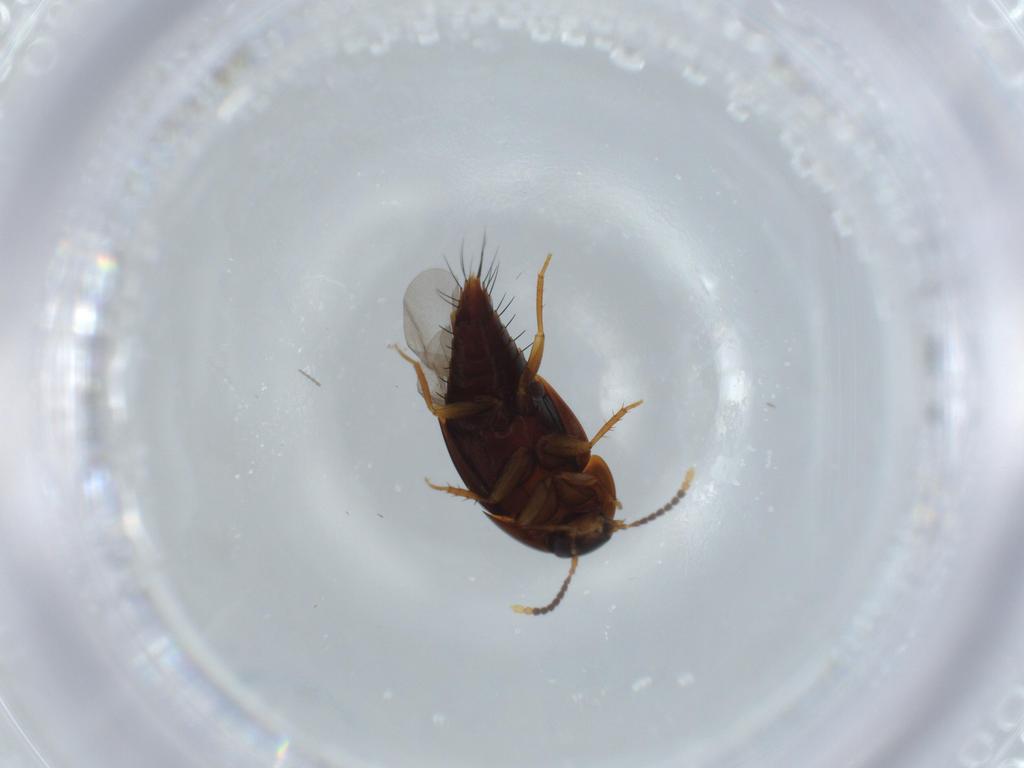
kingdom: Animalia
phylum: Arthropoda
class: Insecta
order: Coleoptera
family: Staphylinidae
